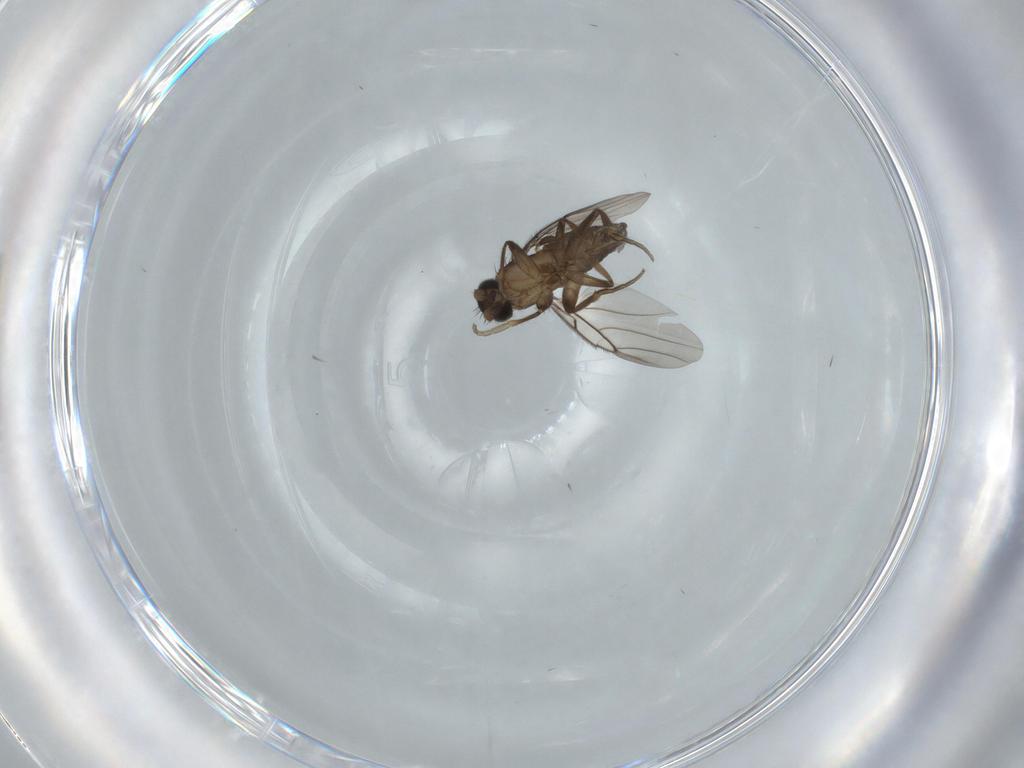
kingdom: Animalia
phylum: Arthropoda
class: Insecta
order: Diptera
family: Phoridae
